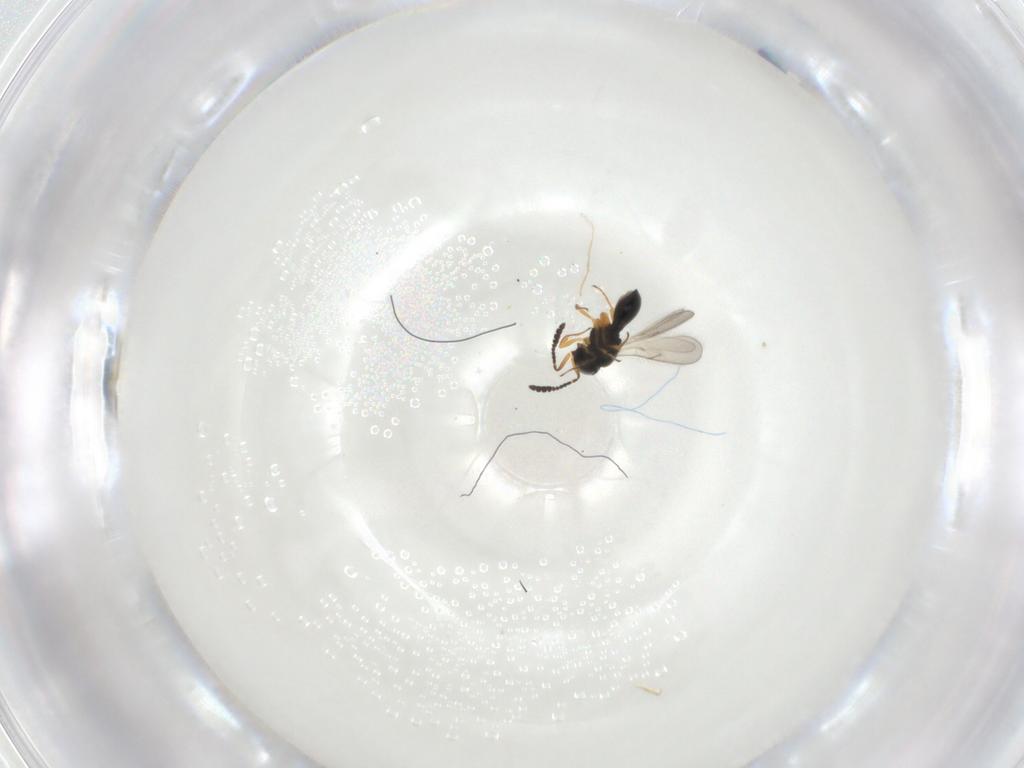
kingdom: Animalia
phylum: Arthropoda
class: Insecta
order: Hymenoptera
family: Scelionidae
